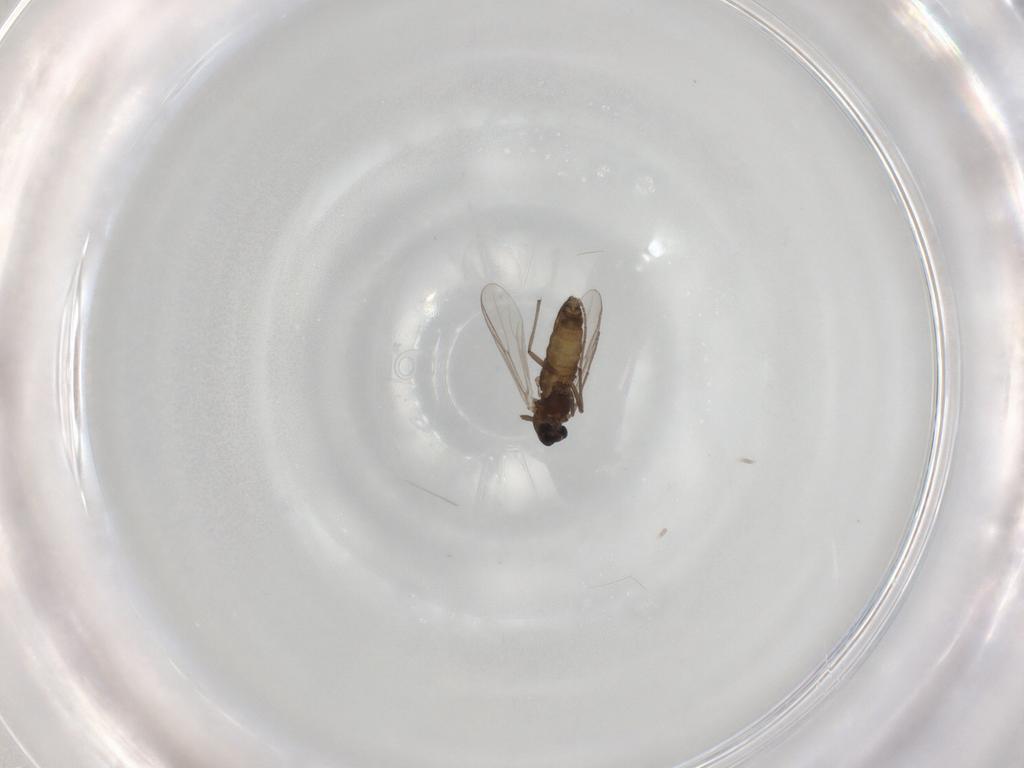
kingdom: Animalia
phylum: Arthropoda
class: Insecta
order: Diptera
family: Chironomidae
